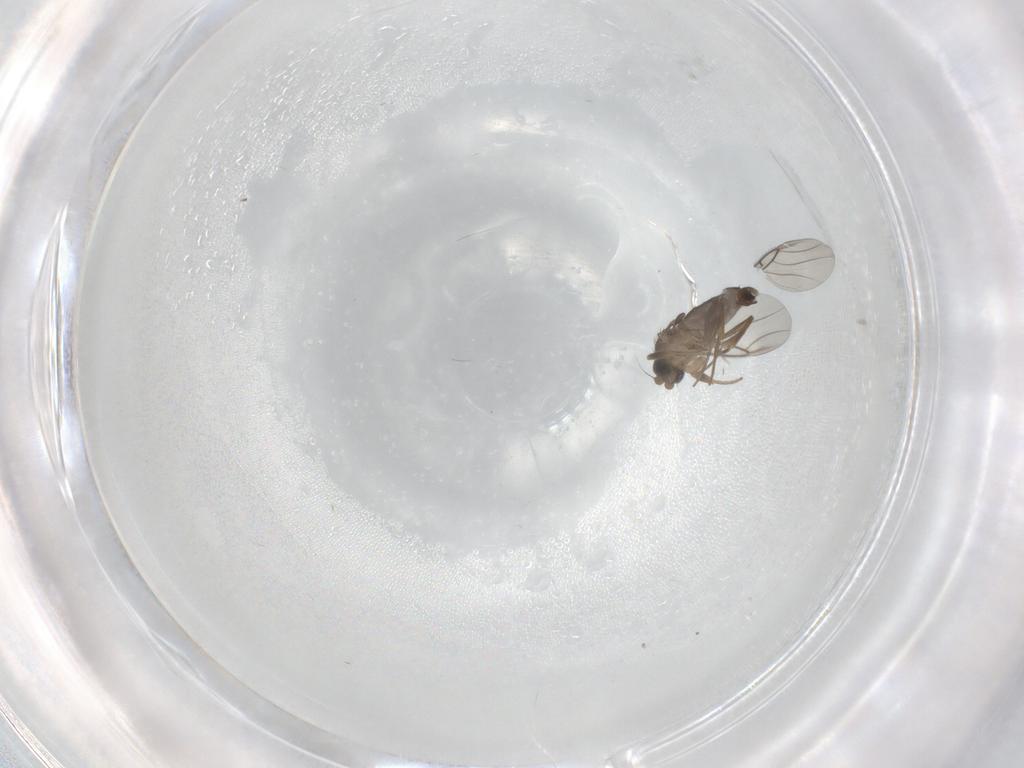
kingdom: Animalia
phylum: Arthropoda
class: Insecta
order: Diptera
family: Phoridae
